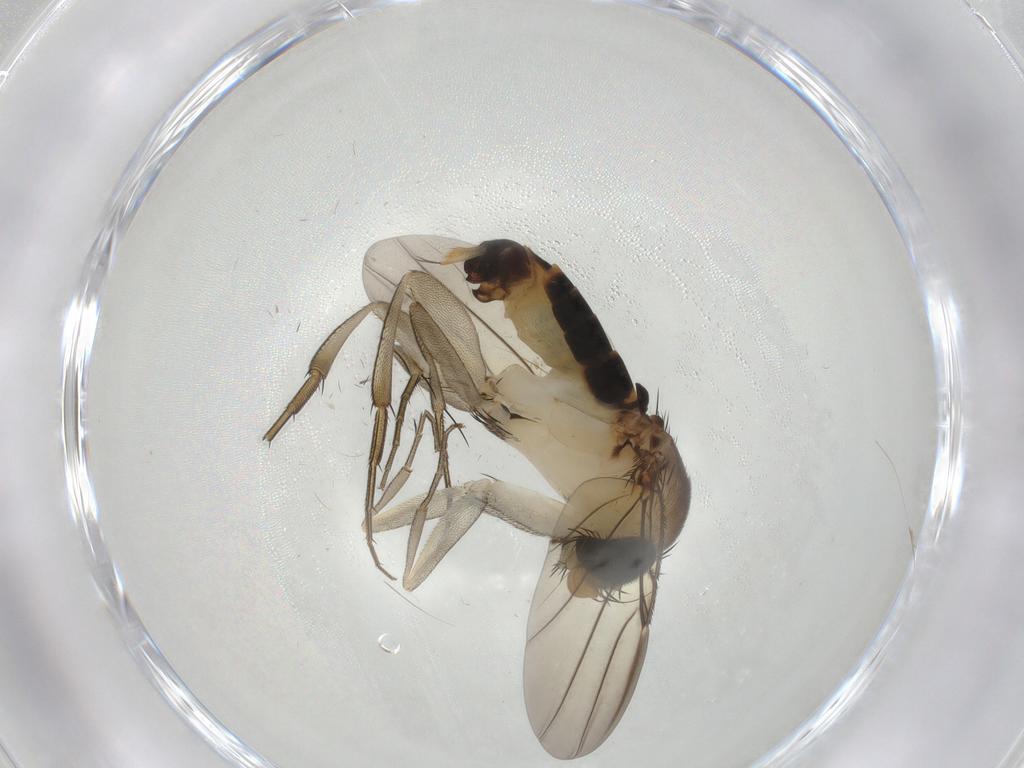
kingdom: Animalia
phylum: Arthropoda
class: Insecta
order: Diptera
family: Phoridae
